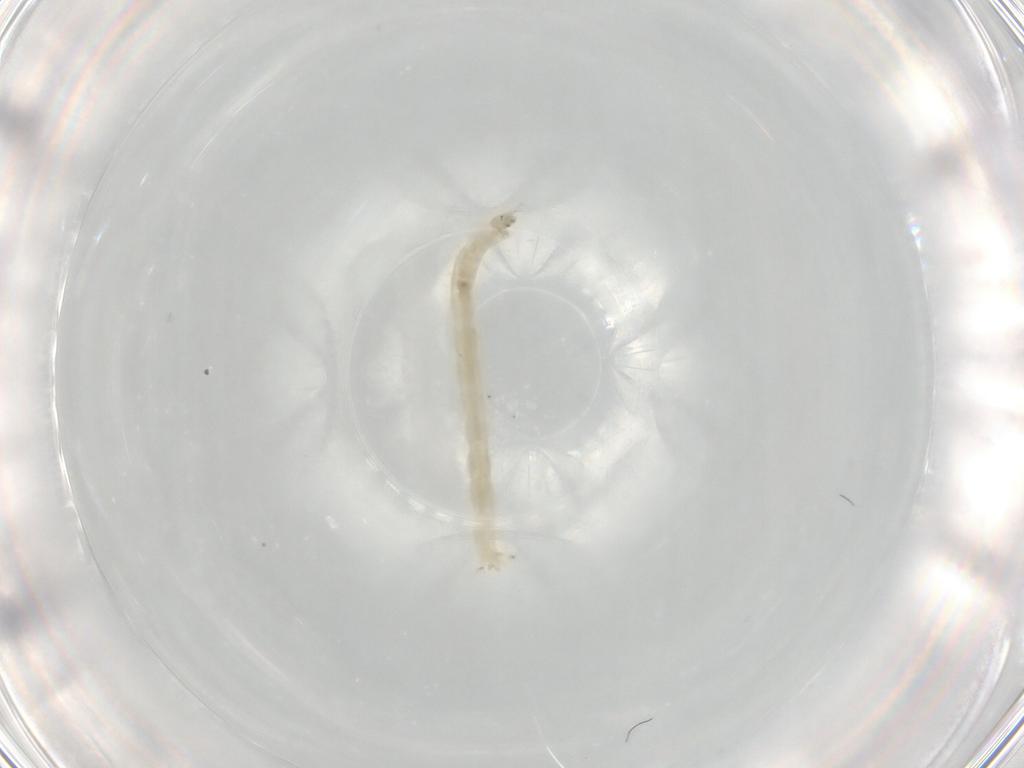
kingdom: Animalia
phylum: Arthropoda
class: Insecta
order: Diptera
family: Chironomidae
